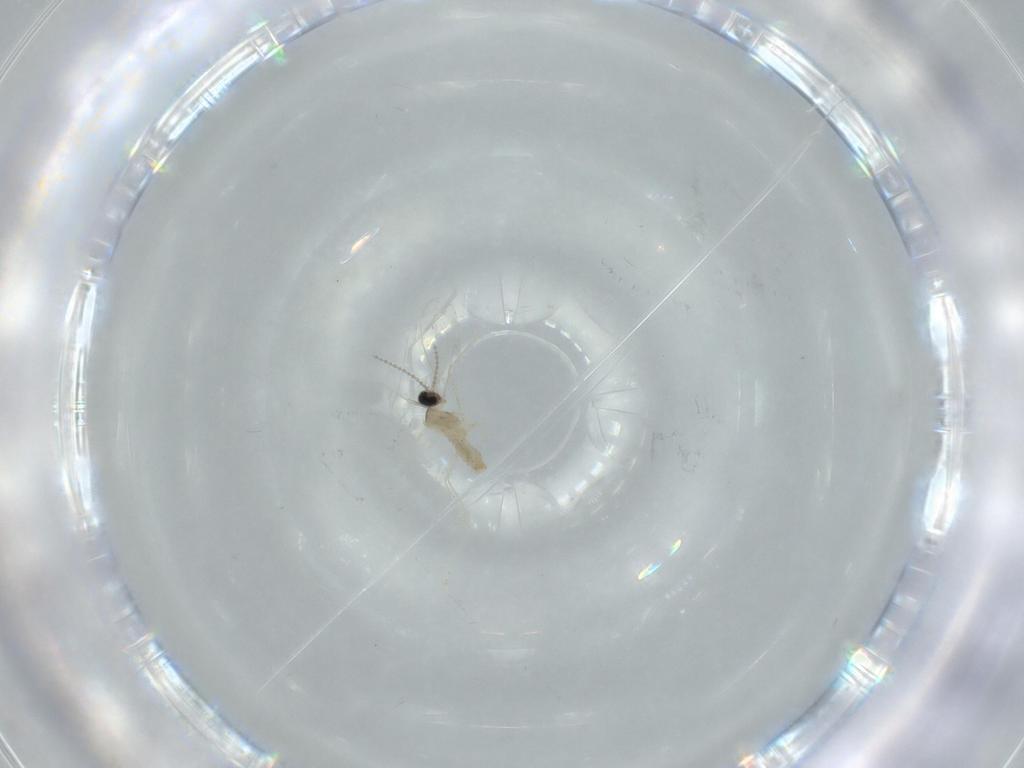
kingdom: Animalia
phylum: Arthropoda
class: Insecta
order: Diptera
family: Cecidomyiidae
